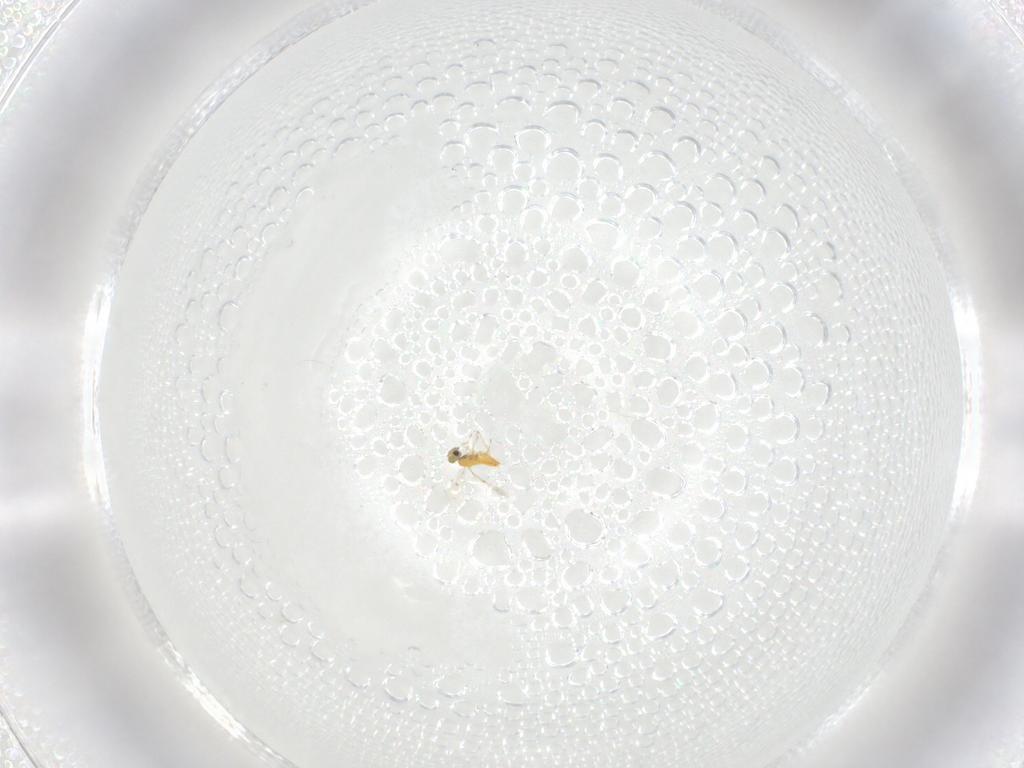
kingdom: Animalia
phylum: Arthropoda
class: Insecta
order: Hymenoptera
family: Trichogrammatidae
